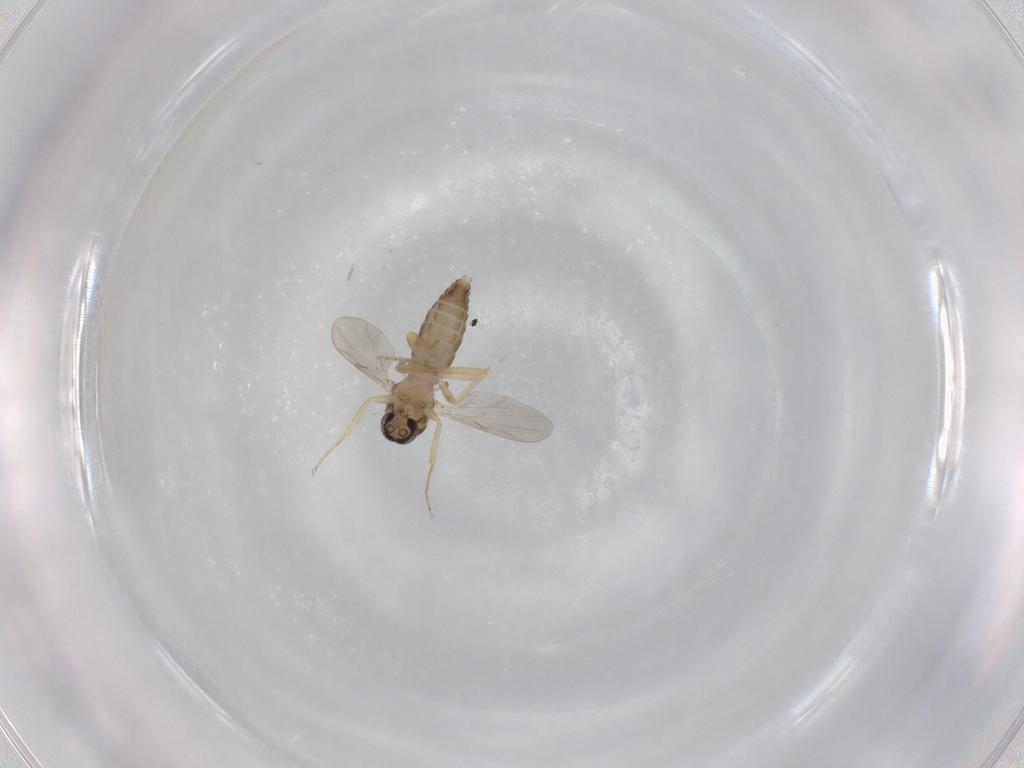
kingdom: Animalia
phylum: Arthropoda
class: Insecta
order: Diptera
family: Ceratopogonidae
